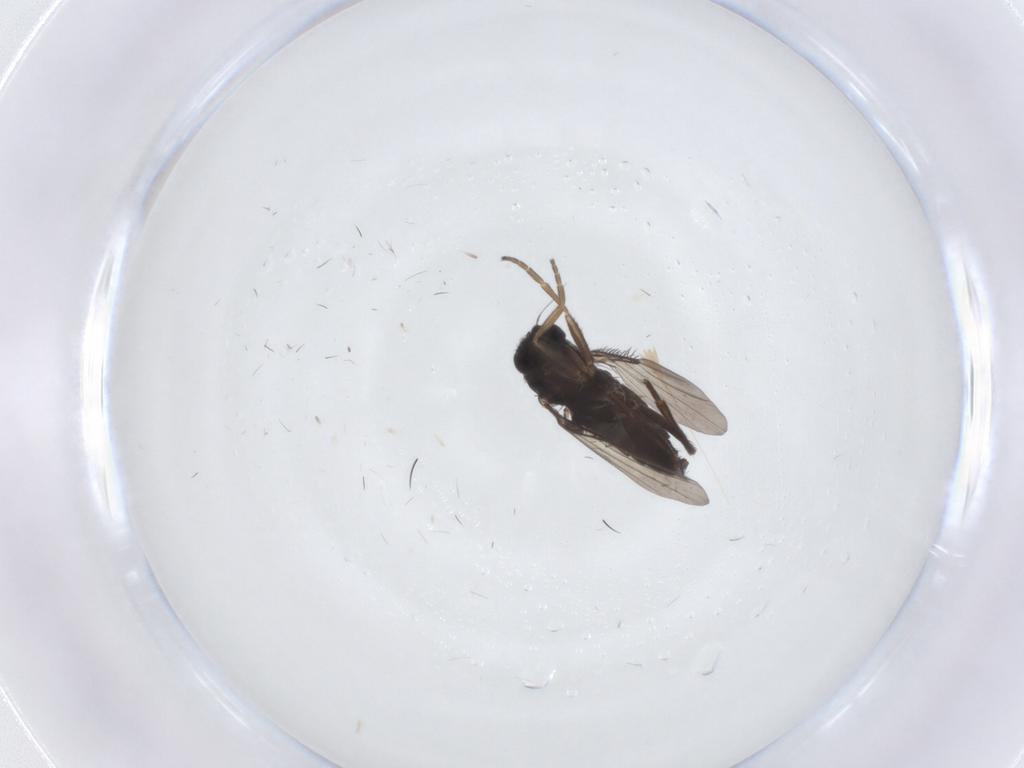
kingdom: Animalia
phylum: Arthropoda
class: Insecta
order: Diptera
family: Phoridae
